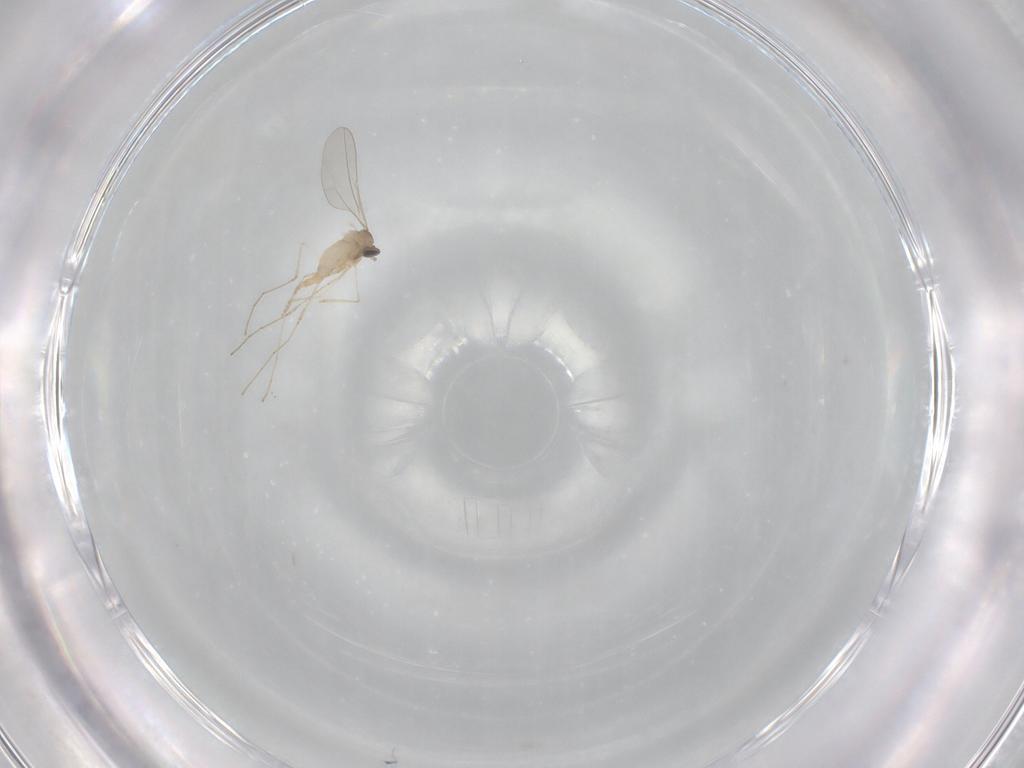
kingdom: Animalia
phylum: Arthropoda
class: Insecta
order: Diptera
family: Cecidomyiidae
